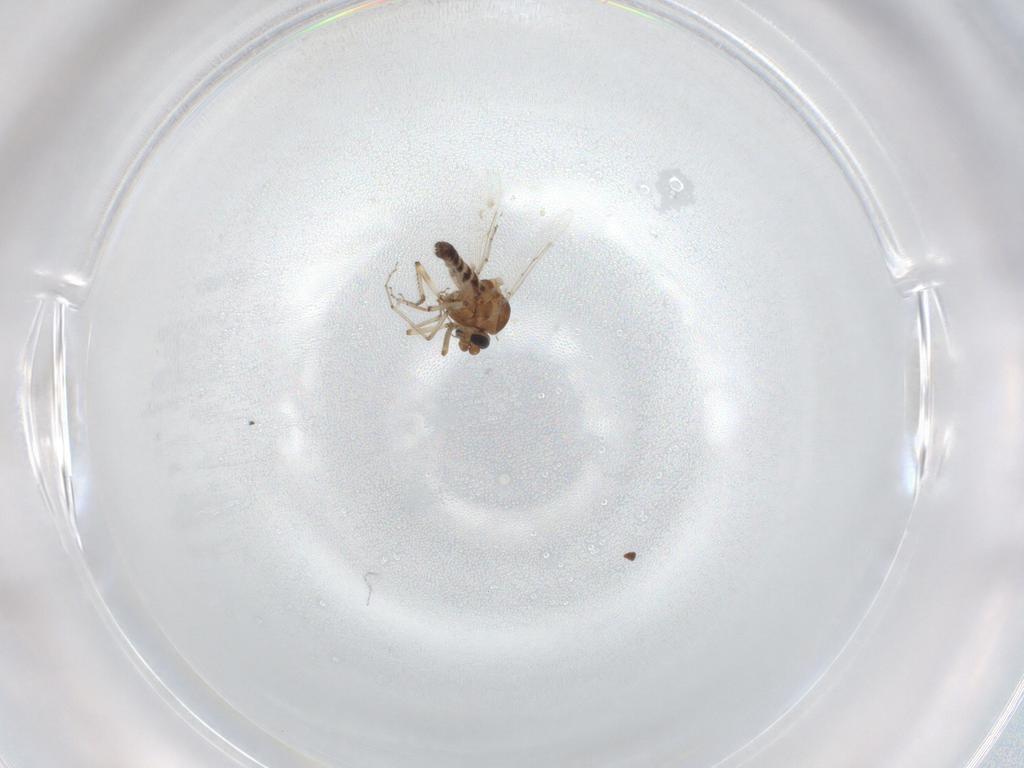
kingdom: Animalia
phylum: Arthropoda
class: Insecta
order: Diptera
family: Ceratopogonidae
